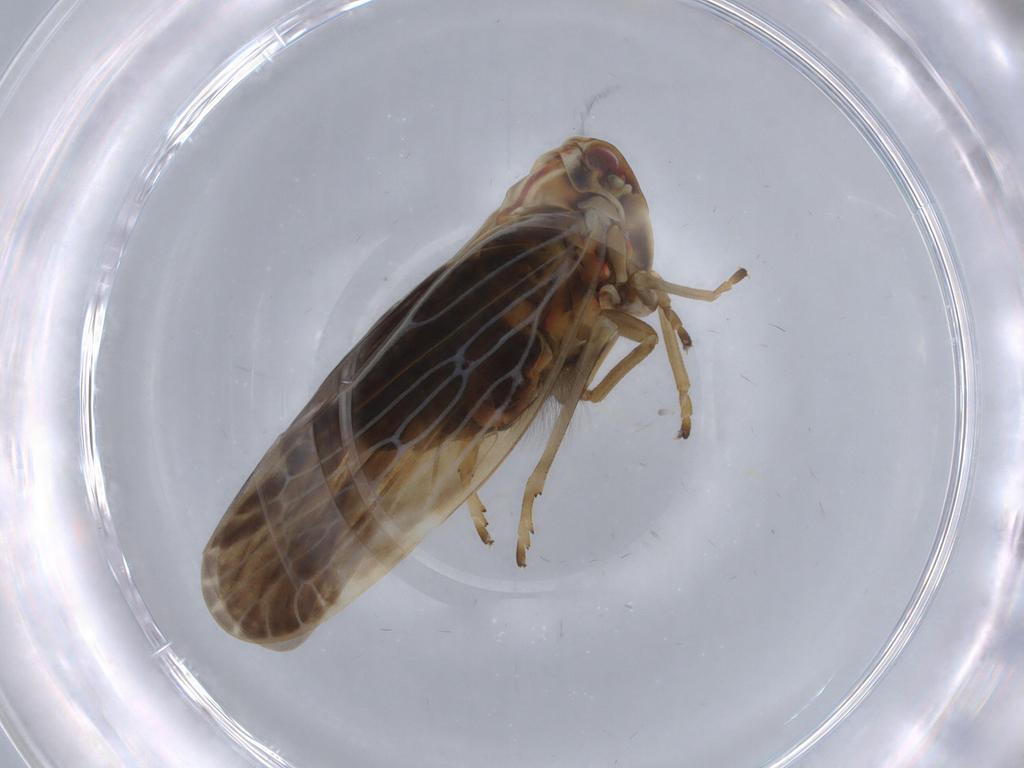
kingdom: Animalia
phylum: Arthropoda
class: Insecta
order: Hemiptera
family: Derbidae
